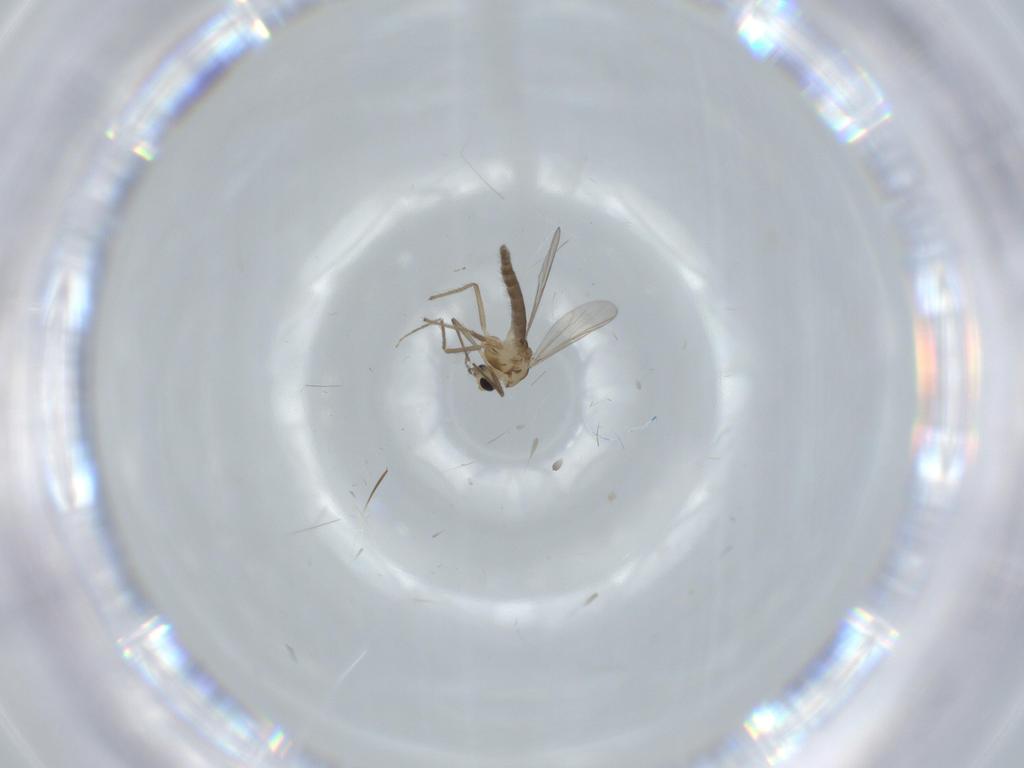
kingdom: Animalia
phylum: Arthropoda
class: Insecta
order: Diptera
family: Chironomidae
